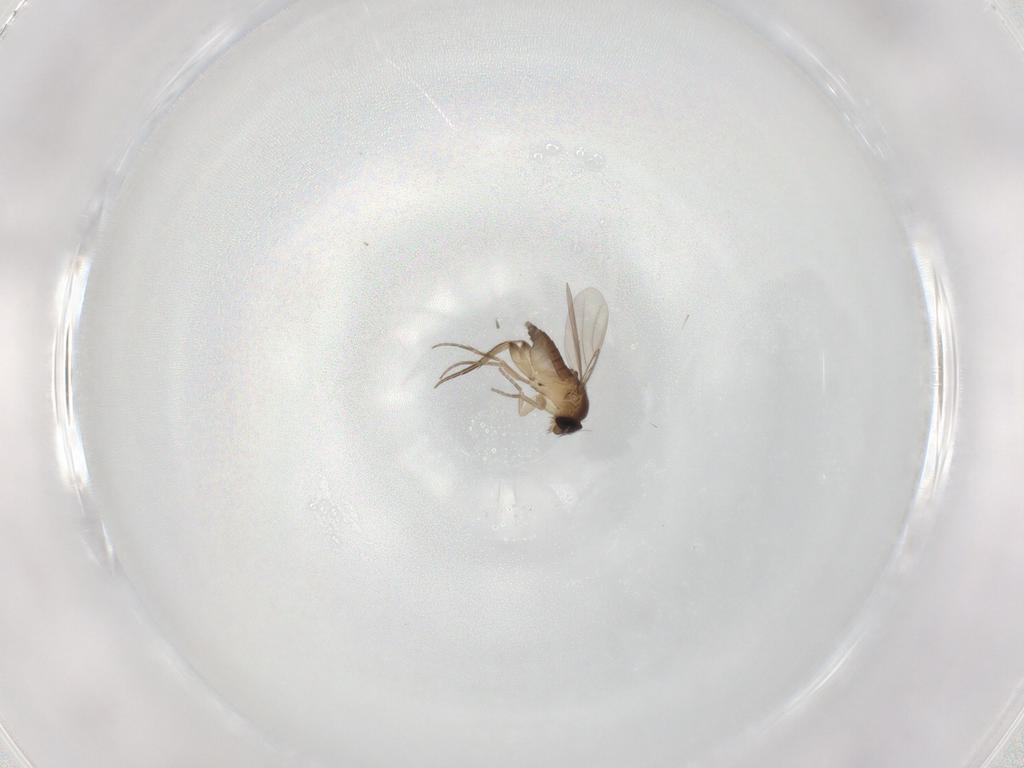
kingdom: Animalia
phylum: Arthropoda
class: Insecta
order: Diptera
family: Phoridae
